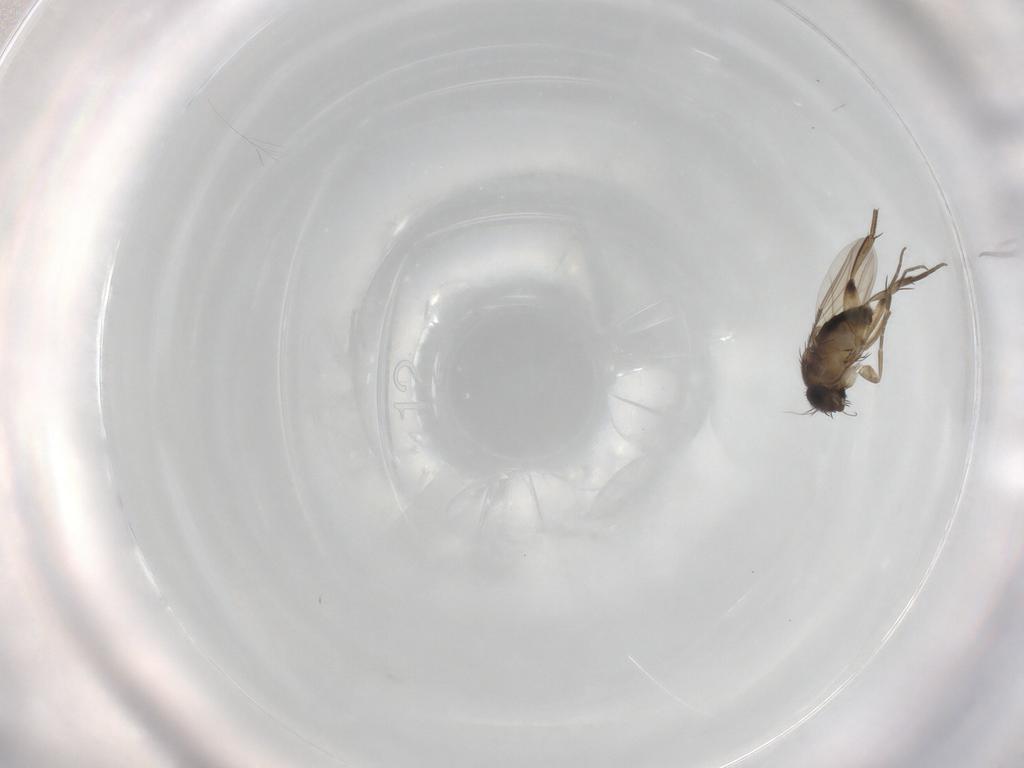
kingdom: Animalia
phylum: Arthropoda
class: Insecta
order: Diptera
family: Phoridae
